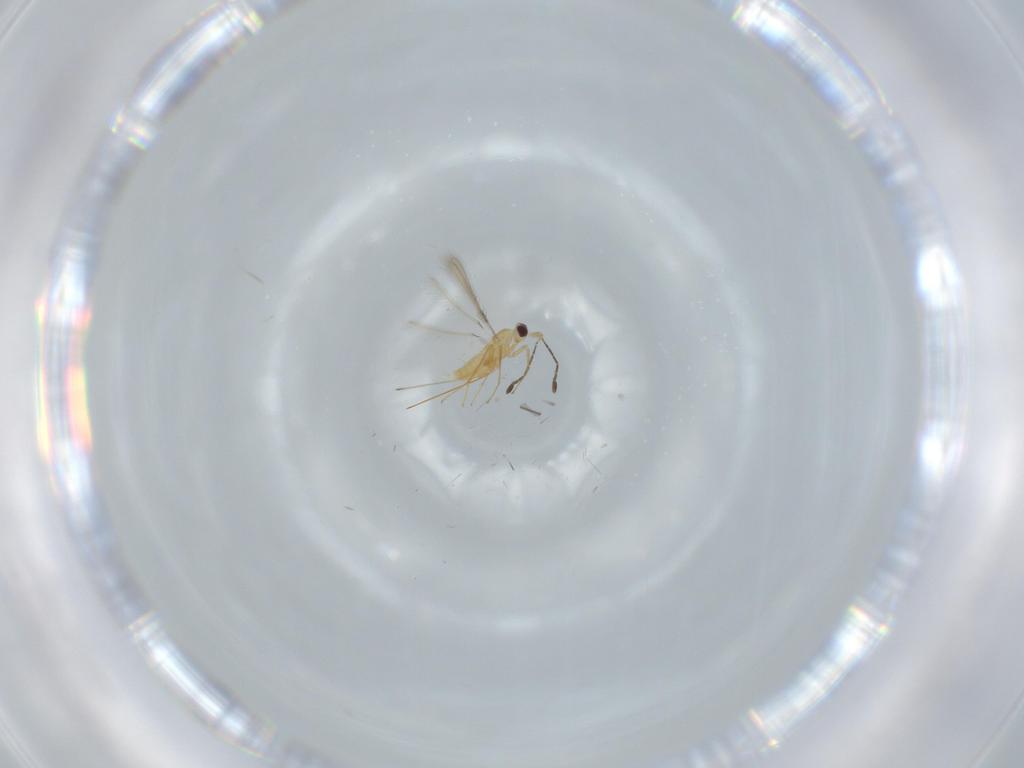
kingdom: Animalia
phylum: Arthropoda
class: Insecta
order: Hymenoptera
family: Mymaridae
